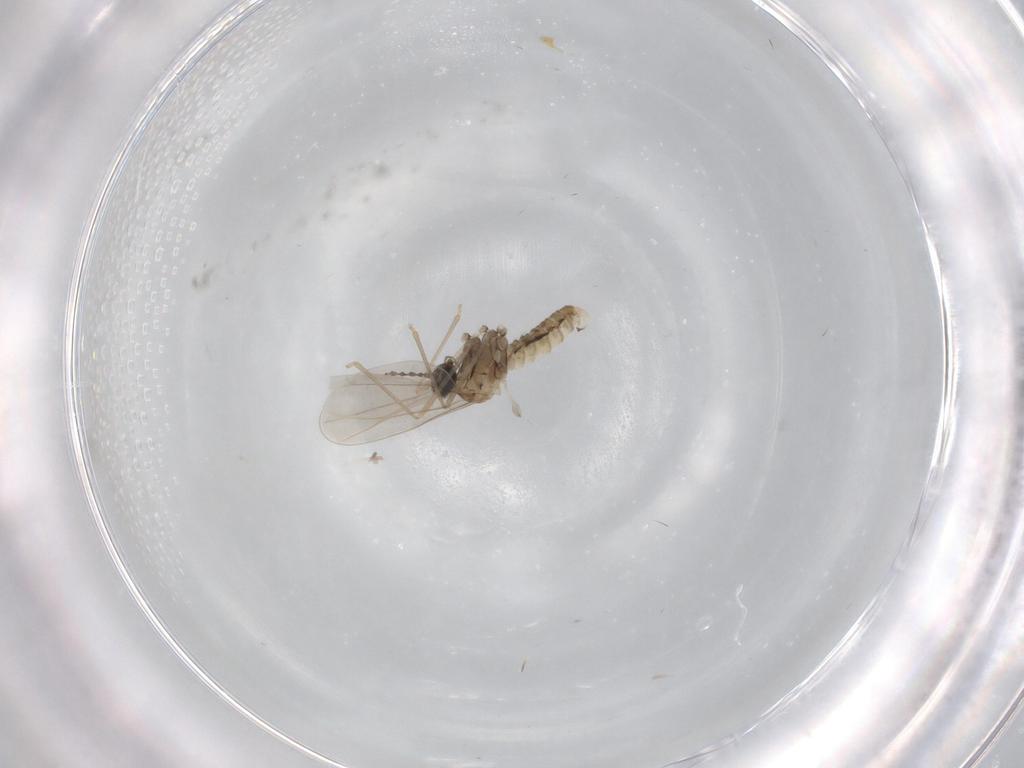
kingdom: Animalia
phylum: Arthropoda
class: Insecta
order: Diptera
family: Cecidomyiidae
